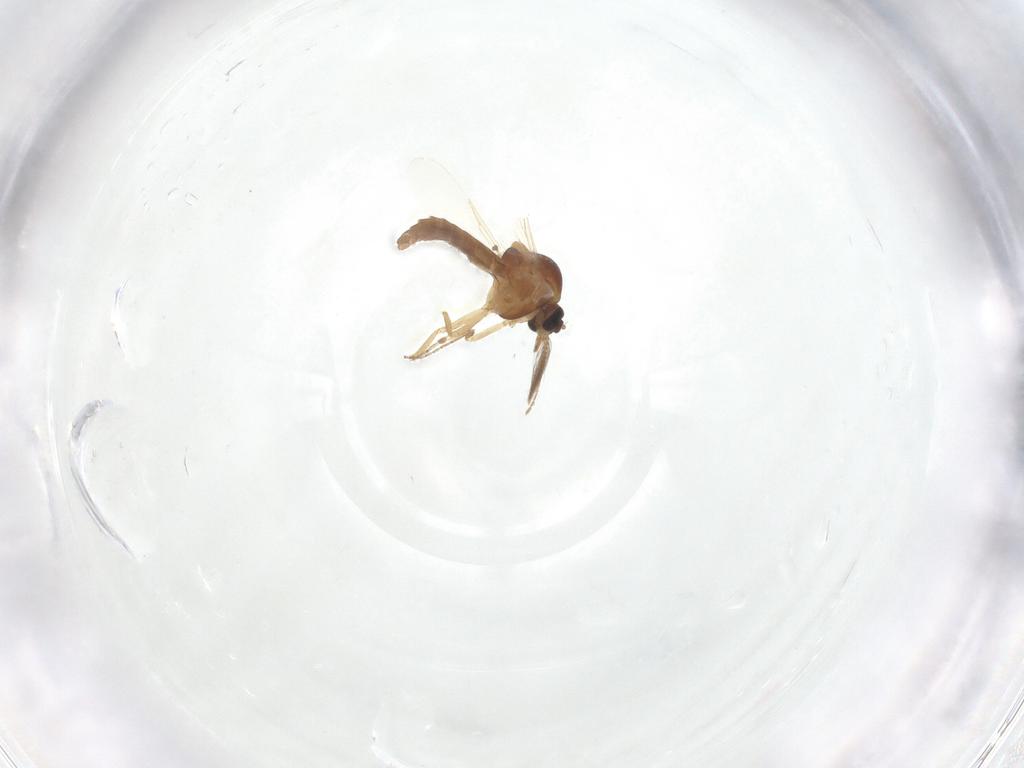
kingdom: Animalia
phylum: Arthropoda
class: Insecta
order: Diptera
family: Ceratopogonidae
